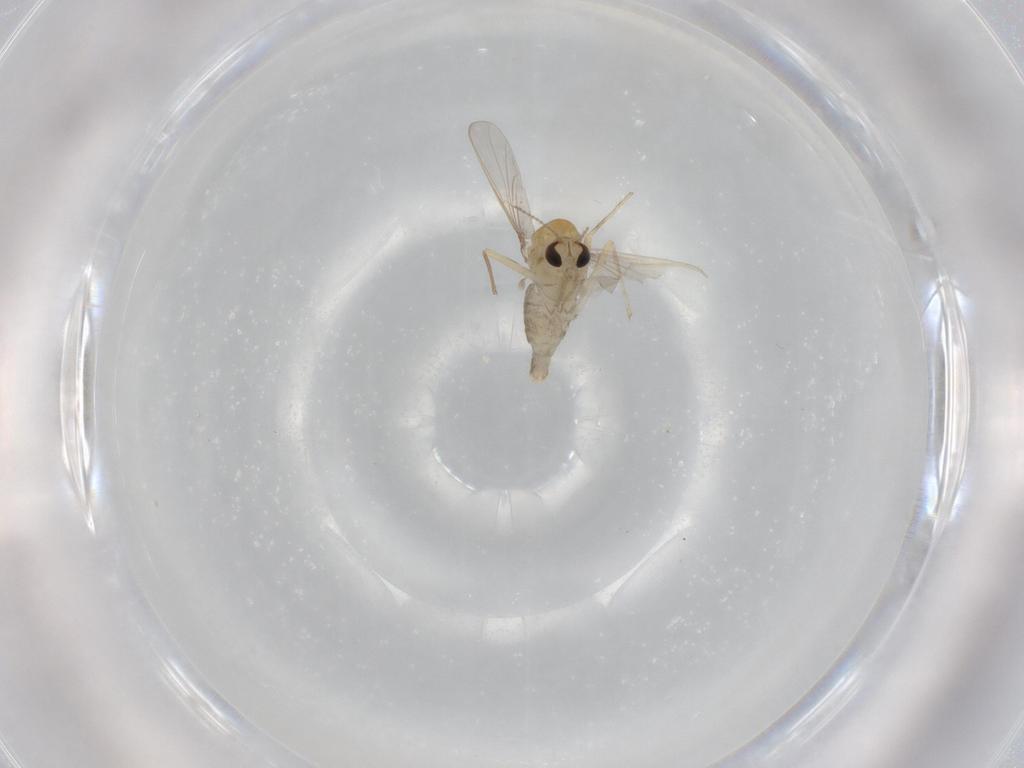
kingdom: Animalia
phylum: Arthropoda
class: Insecta
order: Diptera
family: Chironomidae
